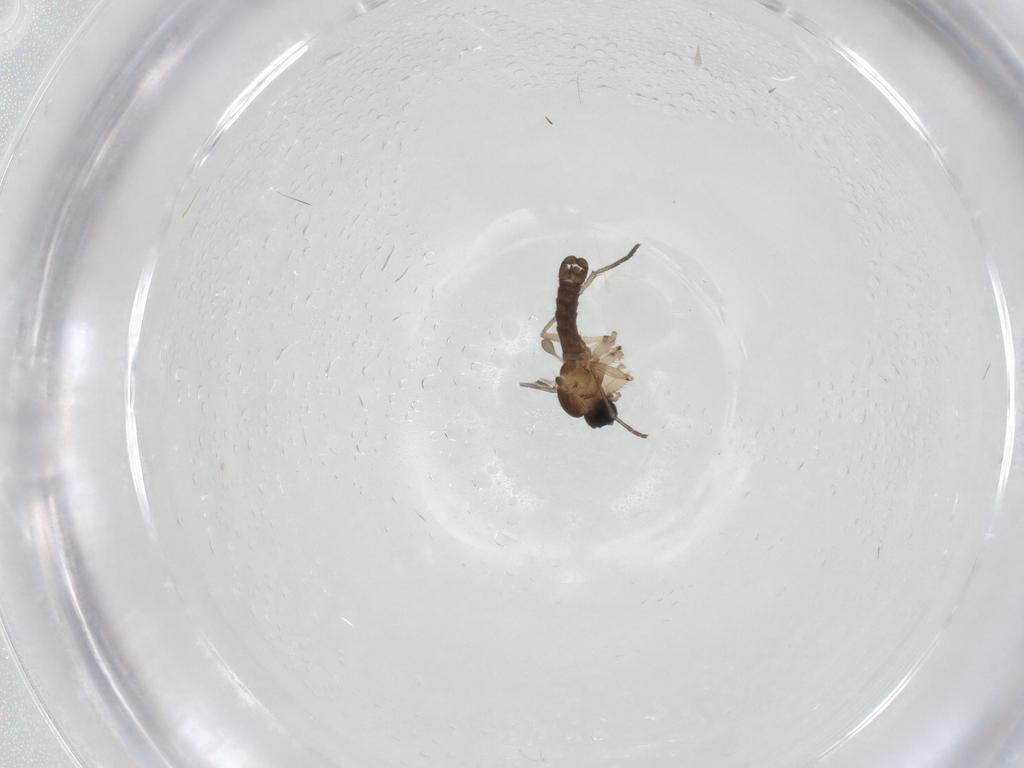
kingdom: Animalia
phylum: Arthropoda
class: Insecta
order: Diptera
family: Sciaridae
